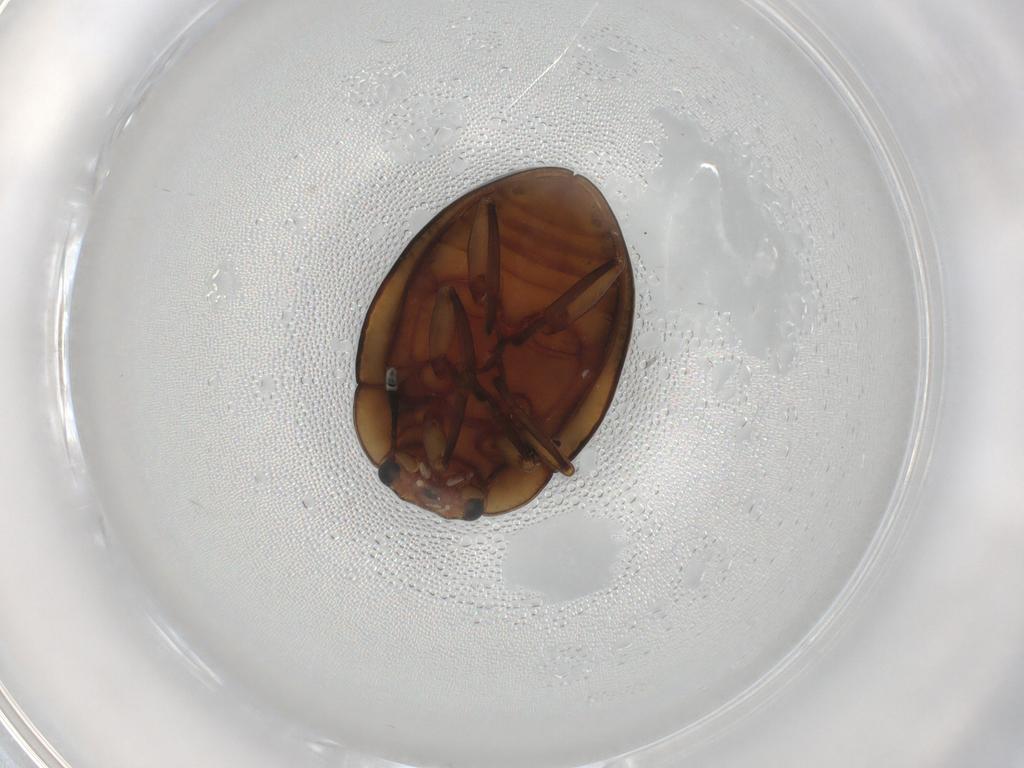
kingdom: Animalia
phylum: Arthropoda
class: Insecta
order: Coleoptera
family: Erotylidae
